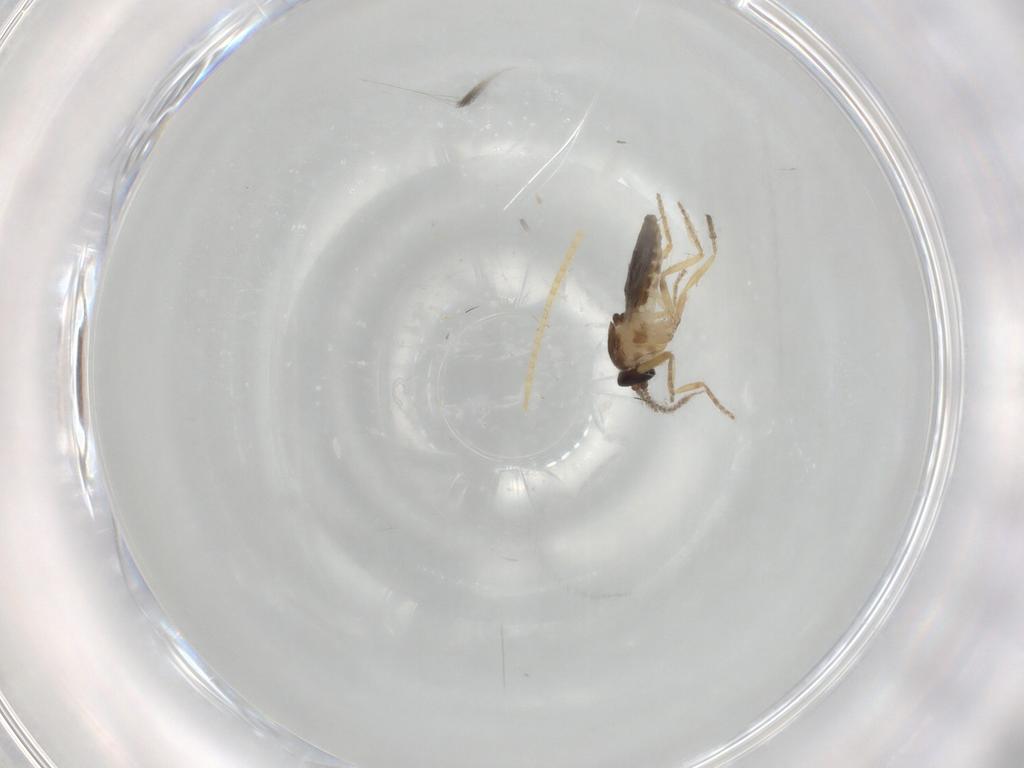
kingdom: Animalia
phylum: Arthropoda
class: Insecta
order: Diptera
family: Ceratopogonidae
